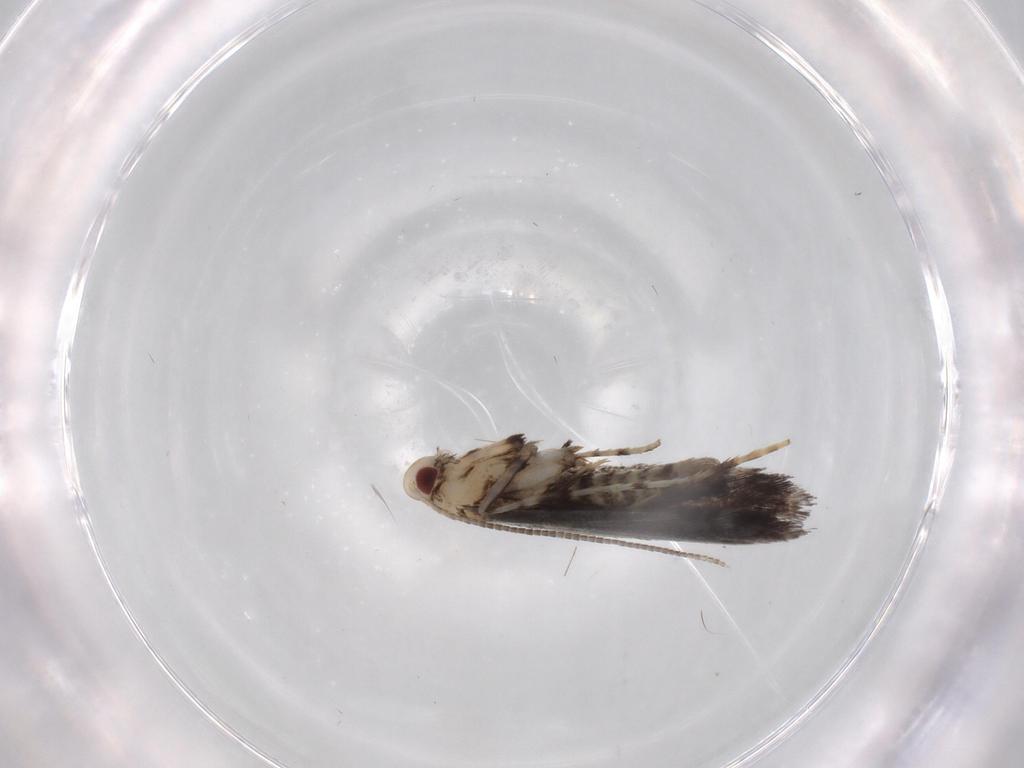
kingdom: Animalia
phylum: Arthropoda
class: Insecta
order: Lepidoptera
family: Gracillariidae
